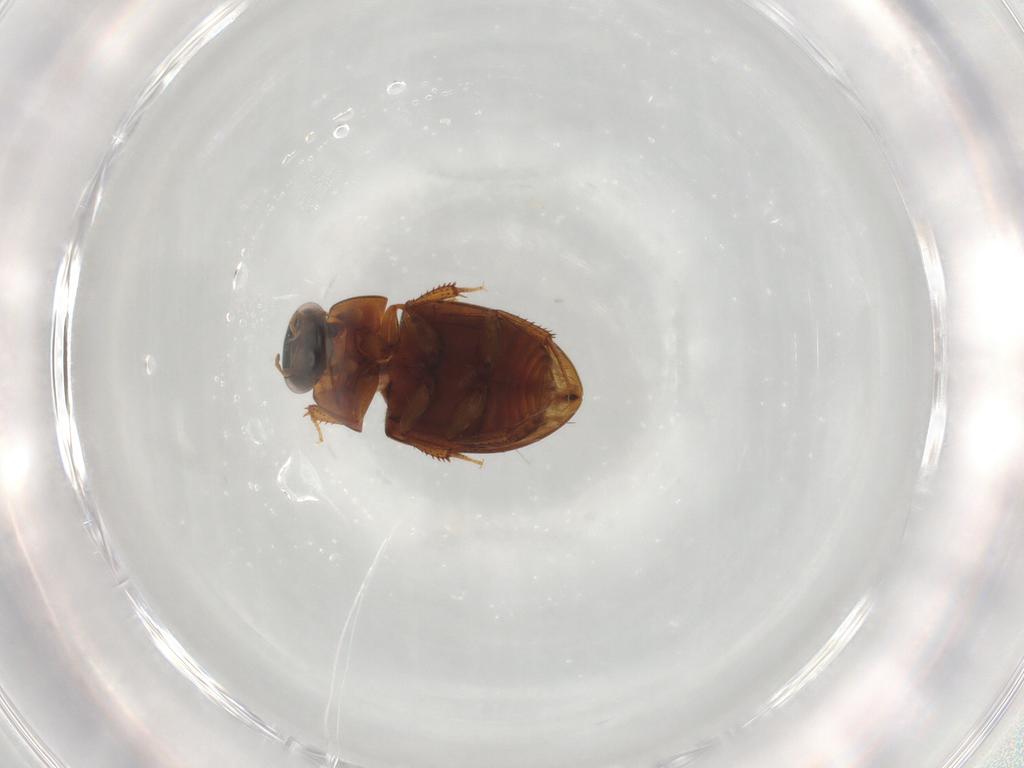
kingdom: Animalia
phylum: Arthropoda
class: Insecta
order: Coleoptera
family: Hydrophilidae
